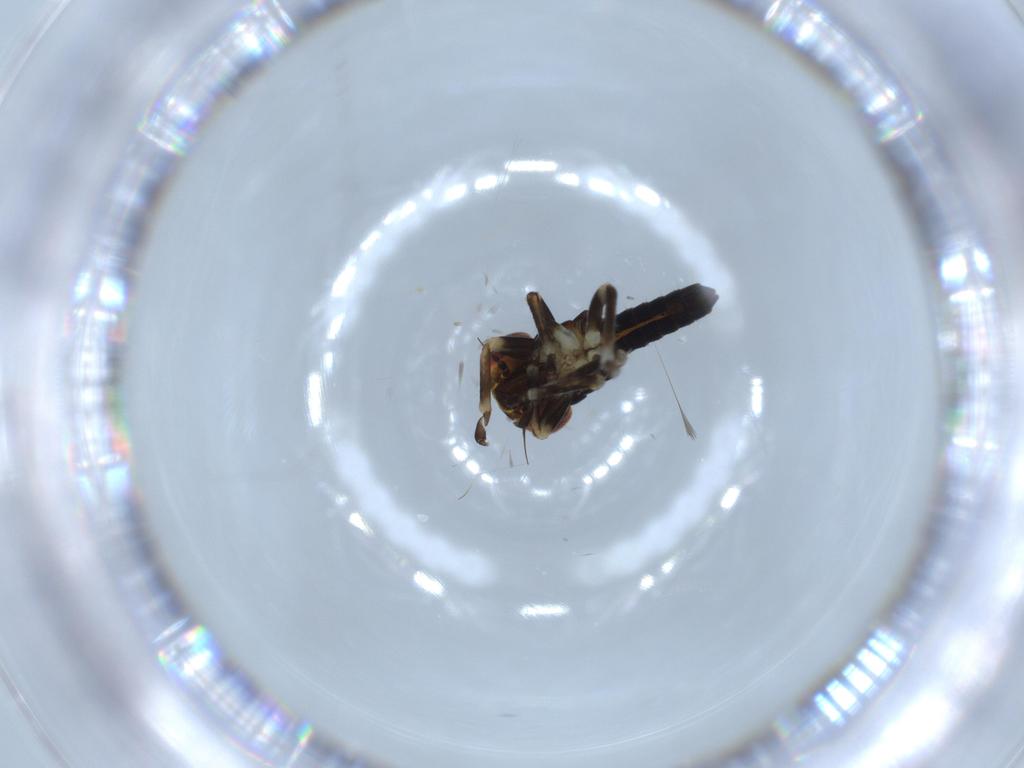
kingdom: Animalia
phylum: Arthropoda
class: Insecta
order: Hemiptera
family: Cicadellidae
